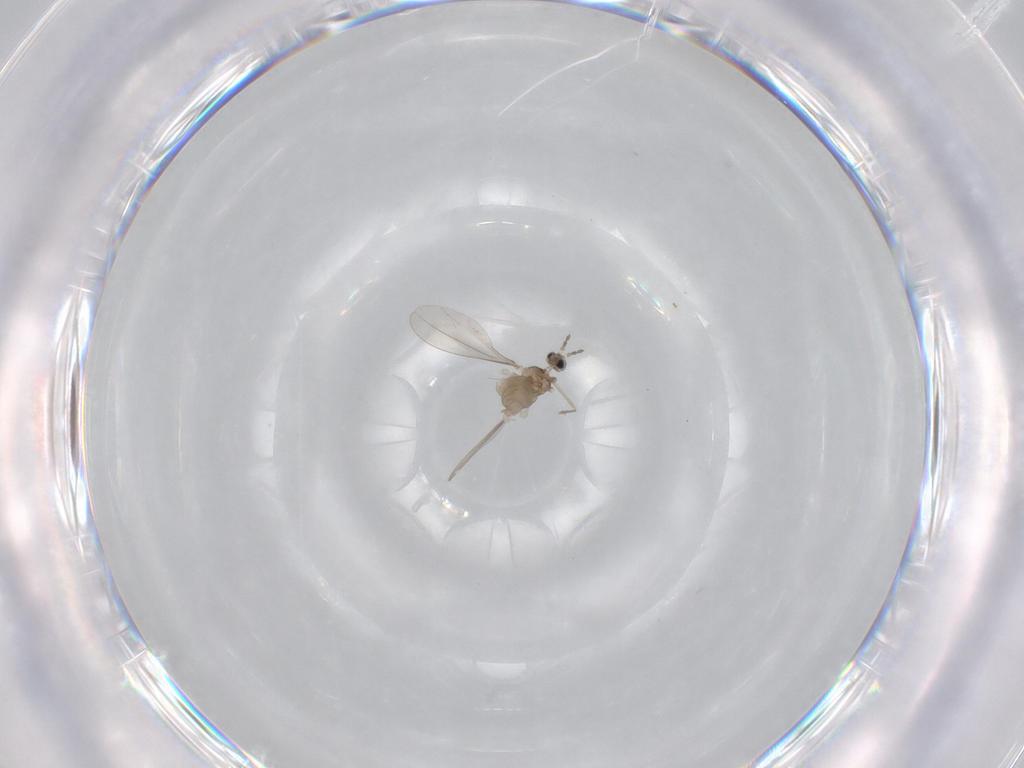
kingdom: Animalia
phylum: Arthropoda
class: Insecta
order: Diptera
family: Cecidomyiidae
